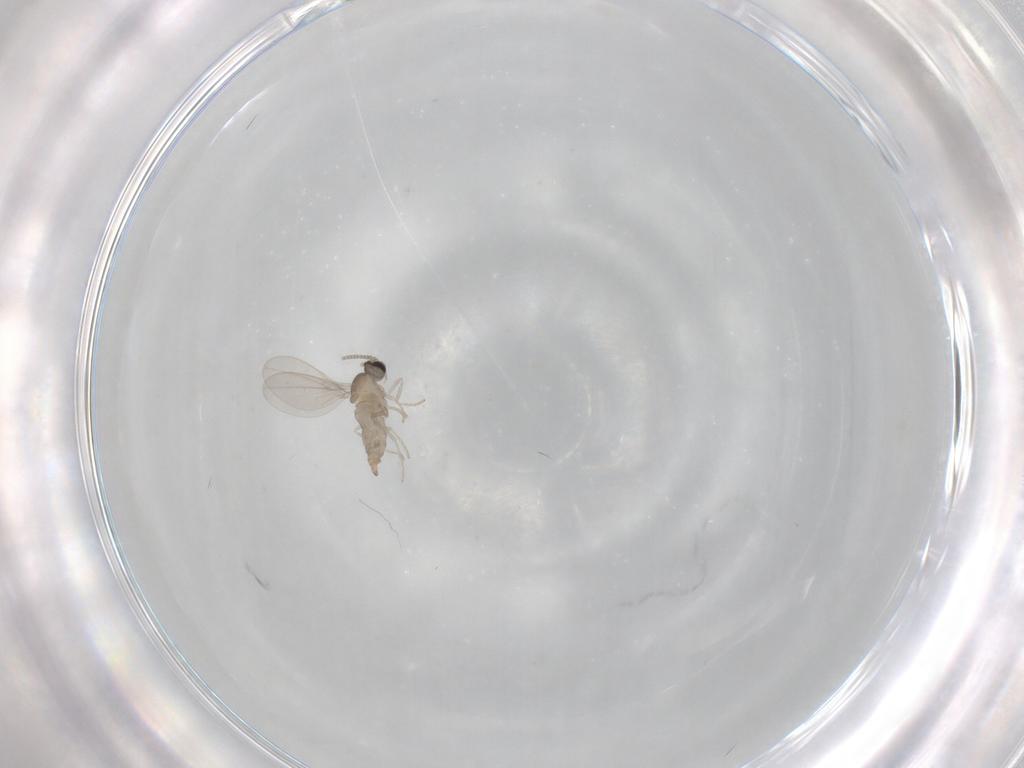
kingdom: Animalia
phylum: Arthropoda
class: Insecta
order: Diptera
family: Cecidomyiidae
